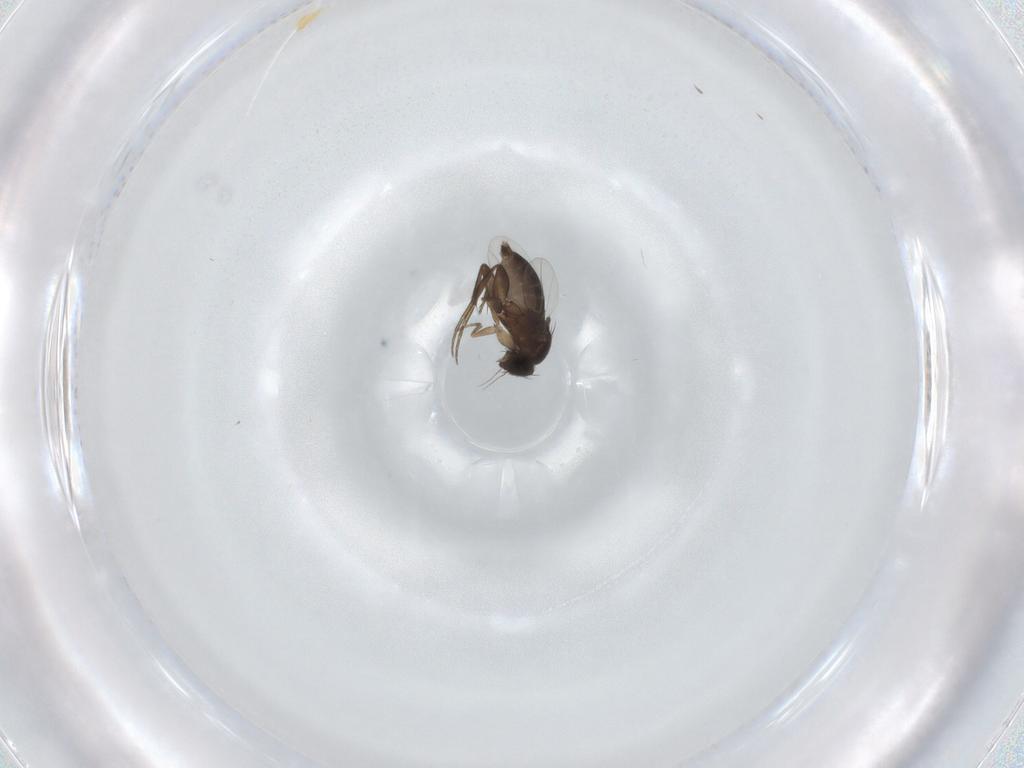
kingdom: Animalia
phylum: Arthropoda
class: Insecta
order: Diptera
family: Phoridae
